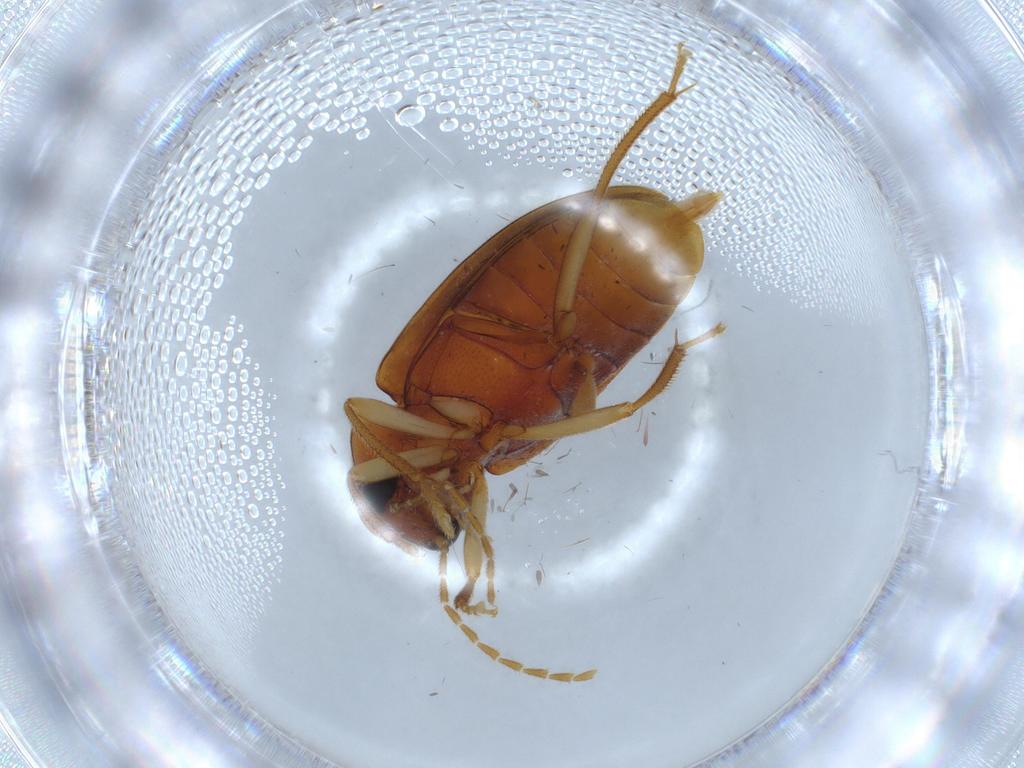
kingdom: Animalia
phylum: Arthropoda
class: Insecta
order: Coleoptera
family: Ptilodactylidae
